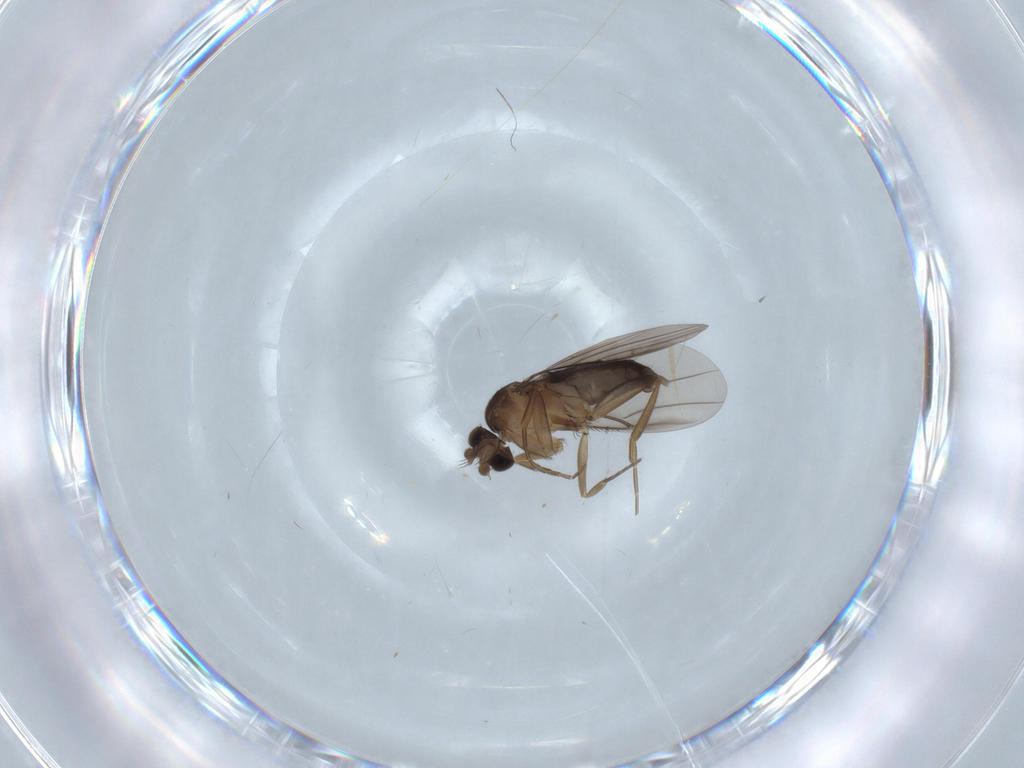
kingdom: Animalia
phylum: Arthropoda
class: Insecta
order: Diptera
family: Phoridae
